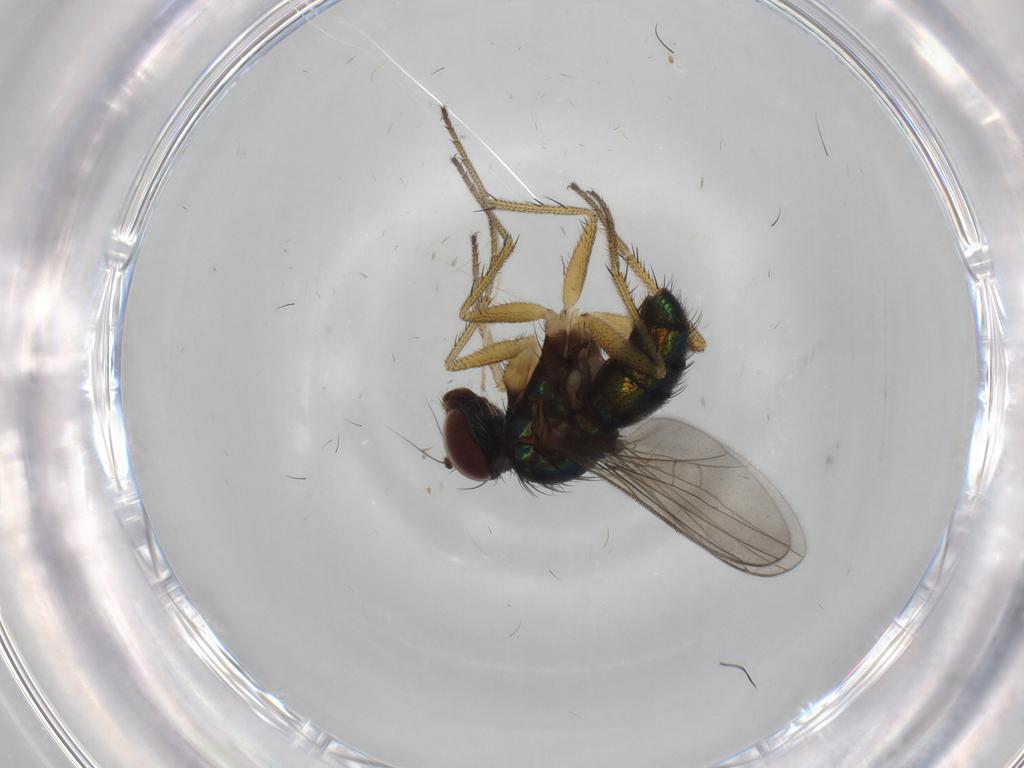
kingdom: Animalia
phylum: Arthropoda
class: Insecta
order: Diptera
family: Dolichopodidae
